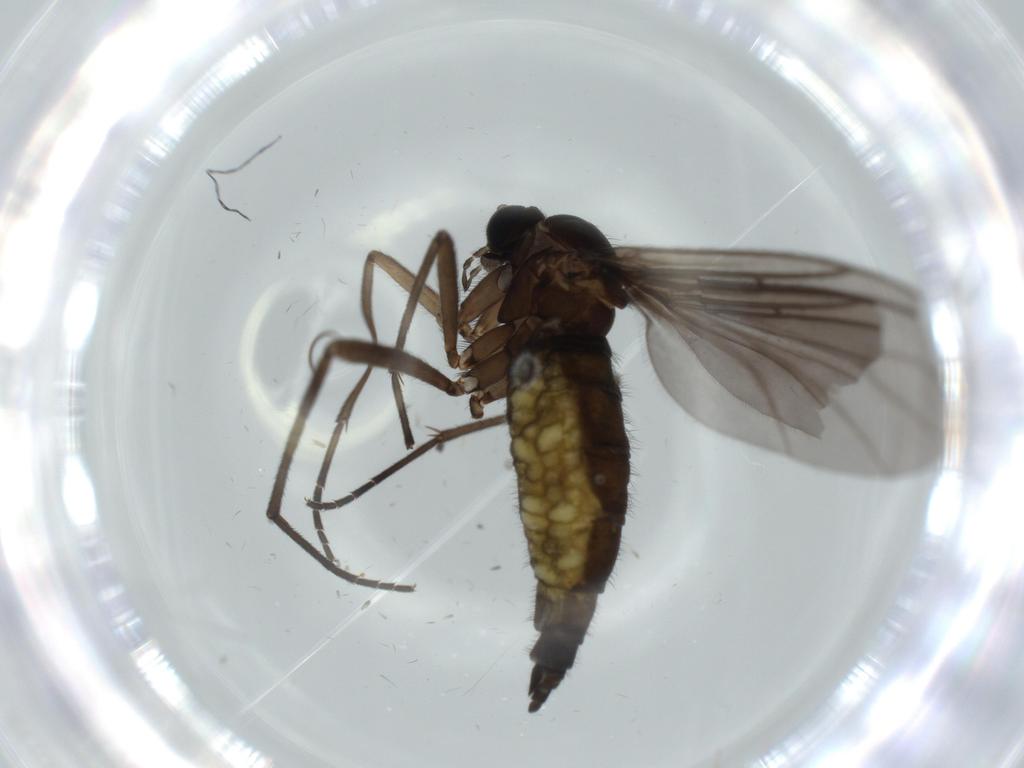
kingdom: Animalia
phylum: Arthropoda
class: Insecta
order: Diptera
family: Sciaridae
